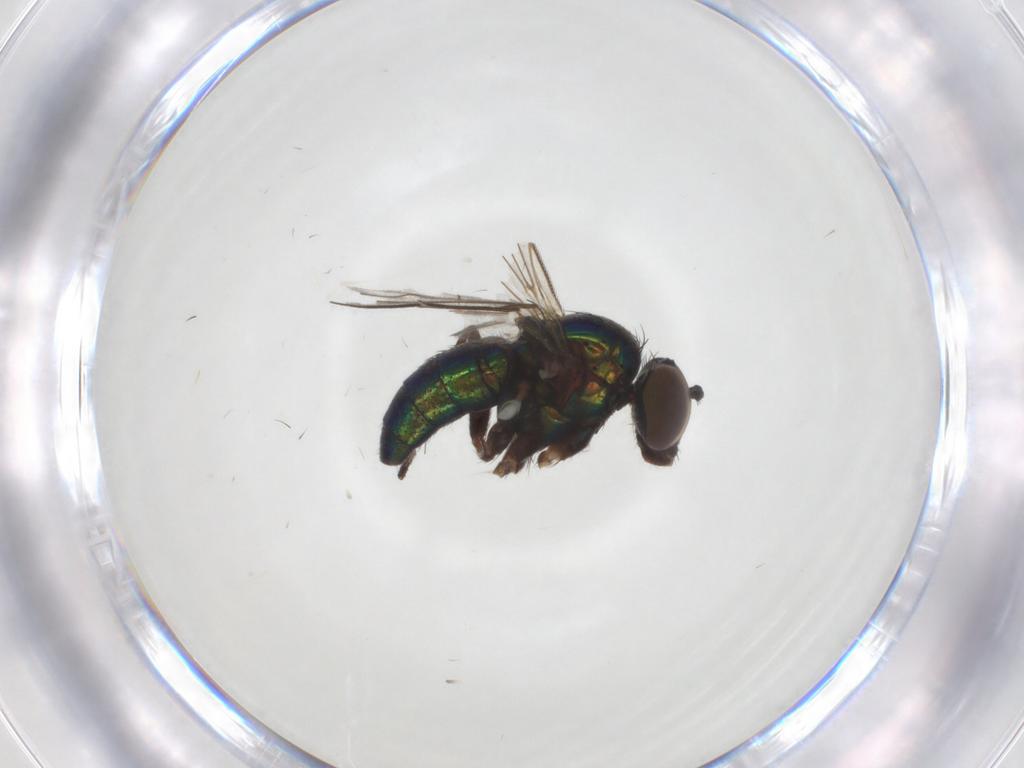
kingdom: Animalia
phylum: Arthropoda
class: Insecta
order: Diptera
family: Dolichopodidae
